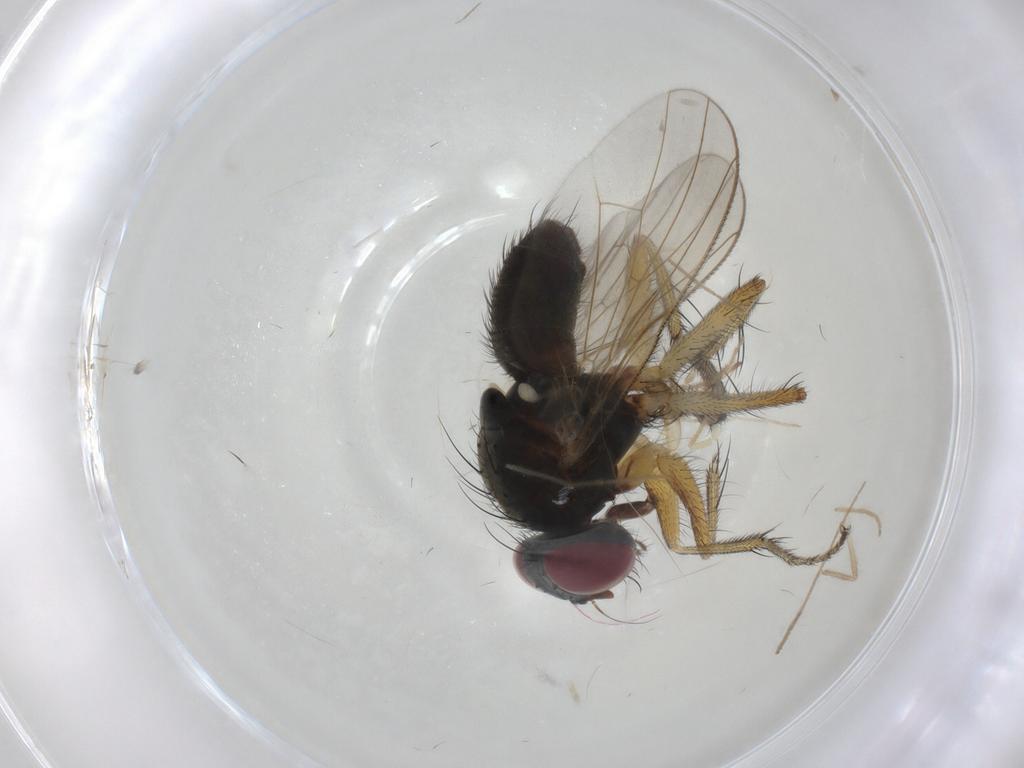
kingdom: Animalia
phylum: Arthropoda
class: Insecta
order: Diptera
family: Muscidae
